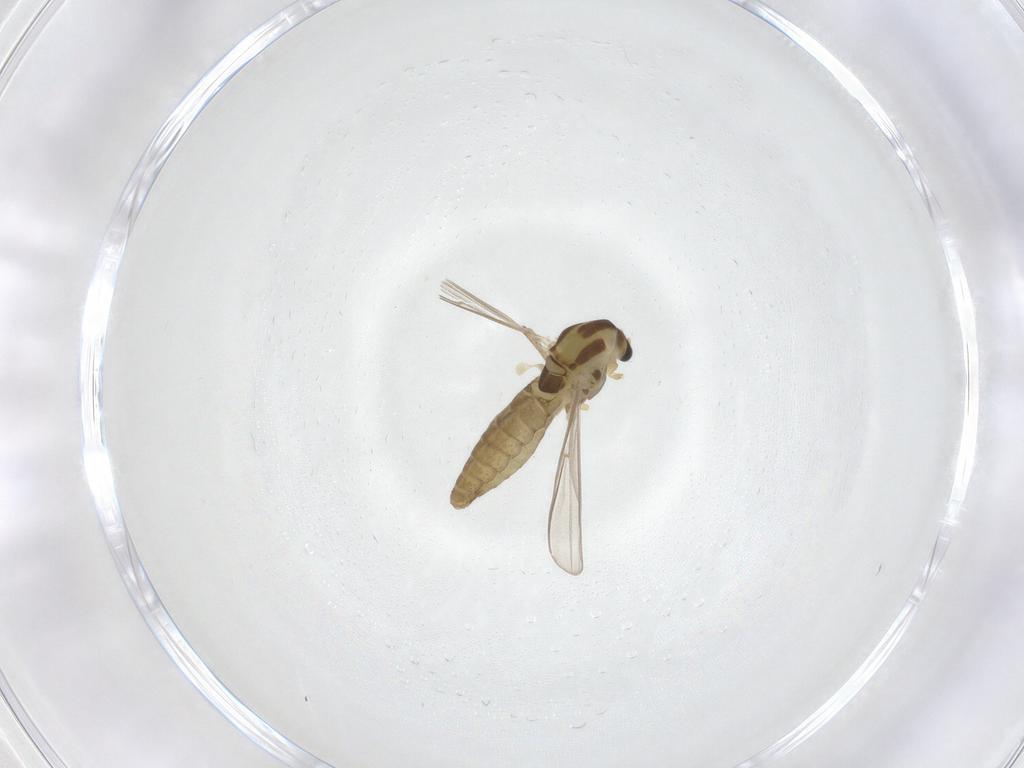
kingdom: Animalia
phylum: Arthropoda
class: Insecta
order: Diptera
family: Chironomidae
